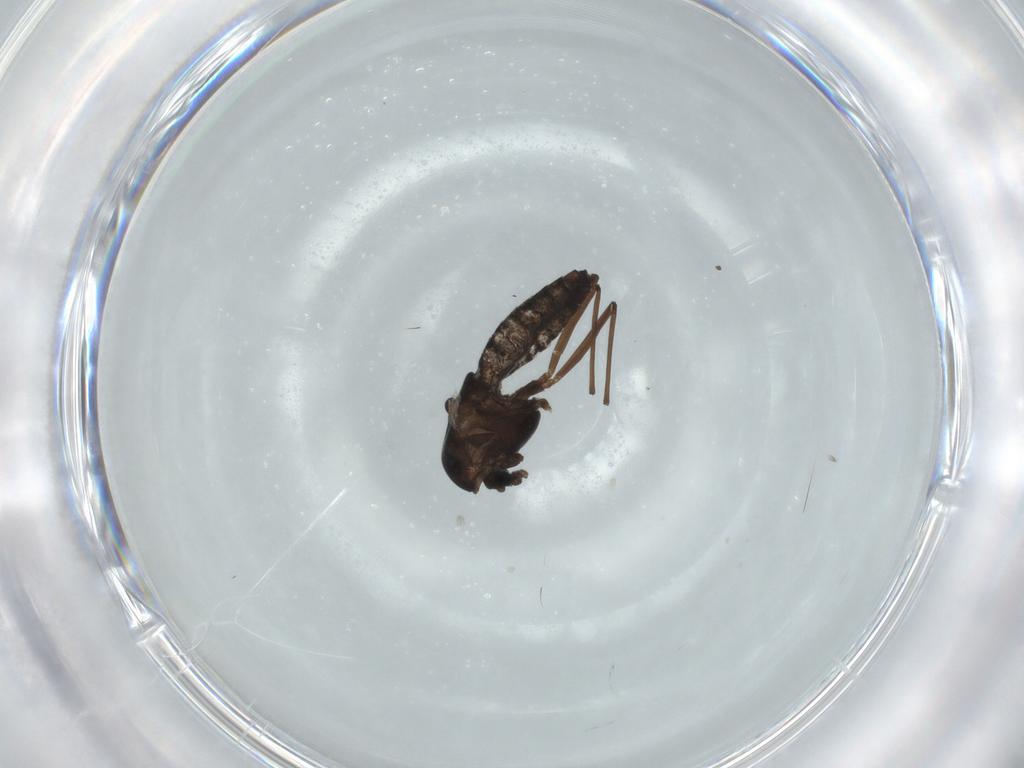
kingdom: Animalia
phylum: Arthropoda
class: Insecta
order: Diptera
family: Chironomidae
